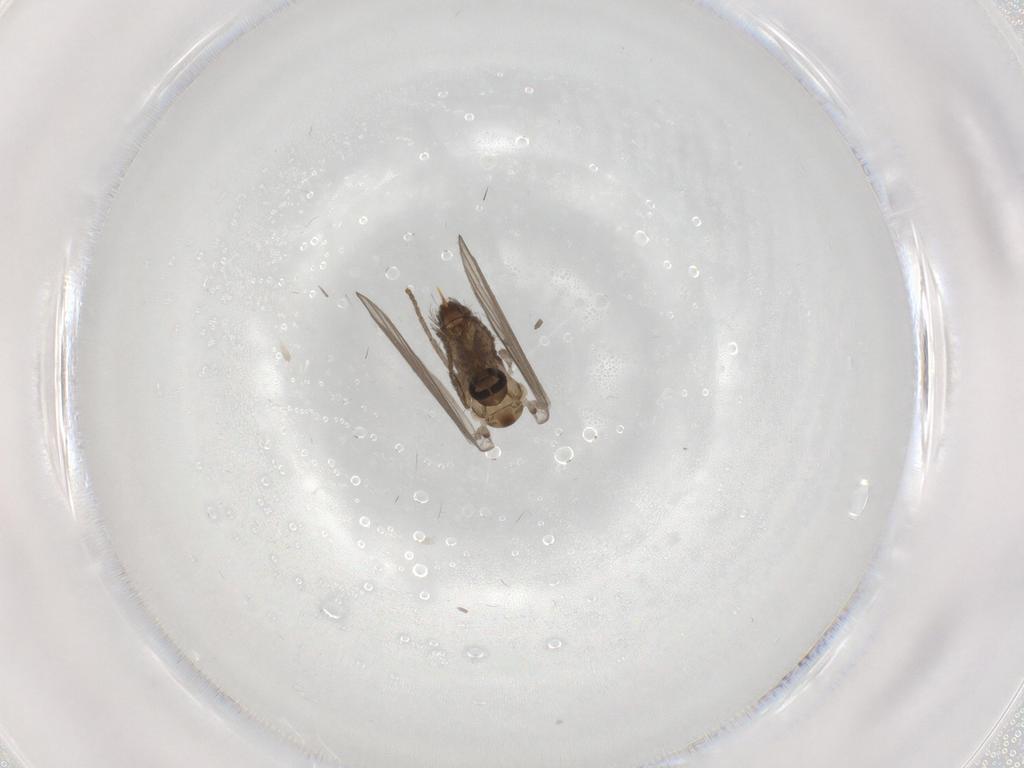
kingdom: Animalia
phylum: Arthropoda
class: Insecta
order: Diptera
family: Psychodidae
